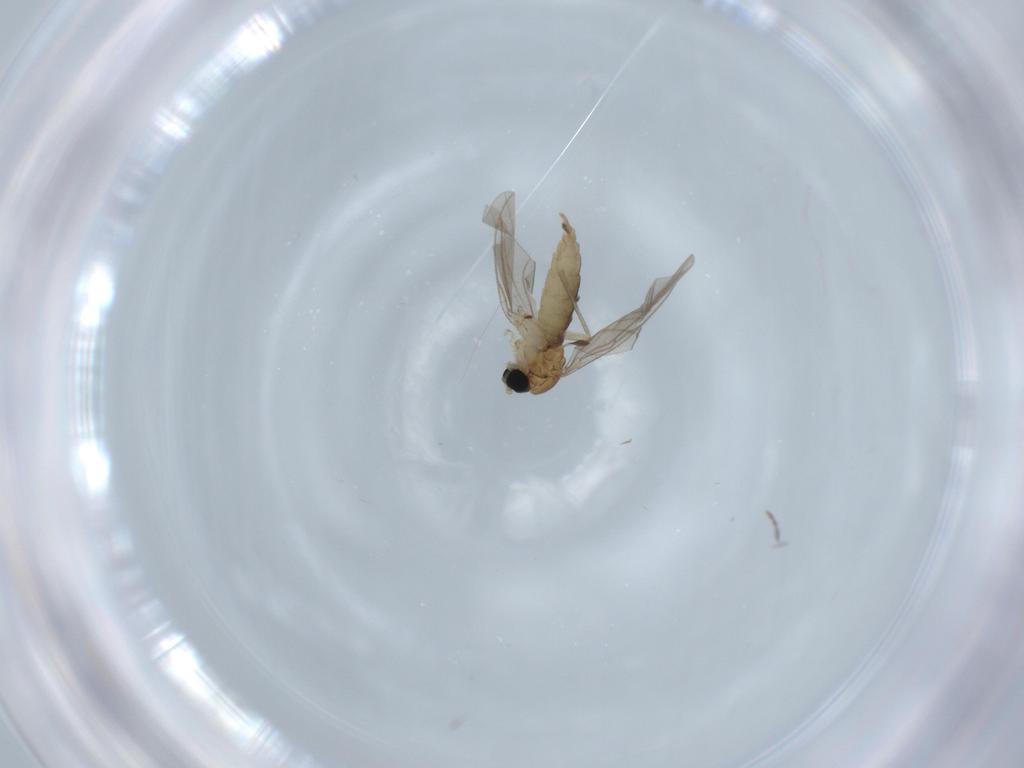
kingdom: Animalia
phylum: Arthropoda
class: Insecta
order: Diptera
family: Sciaridae
